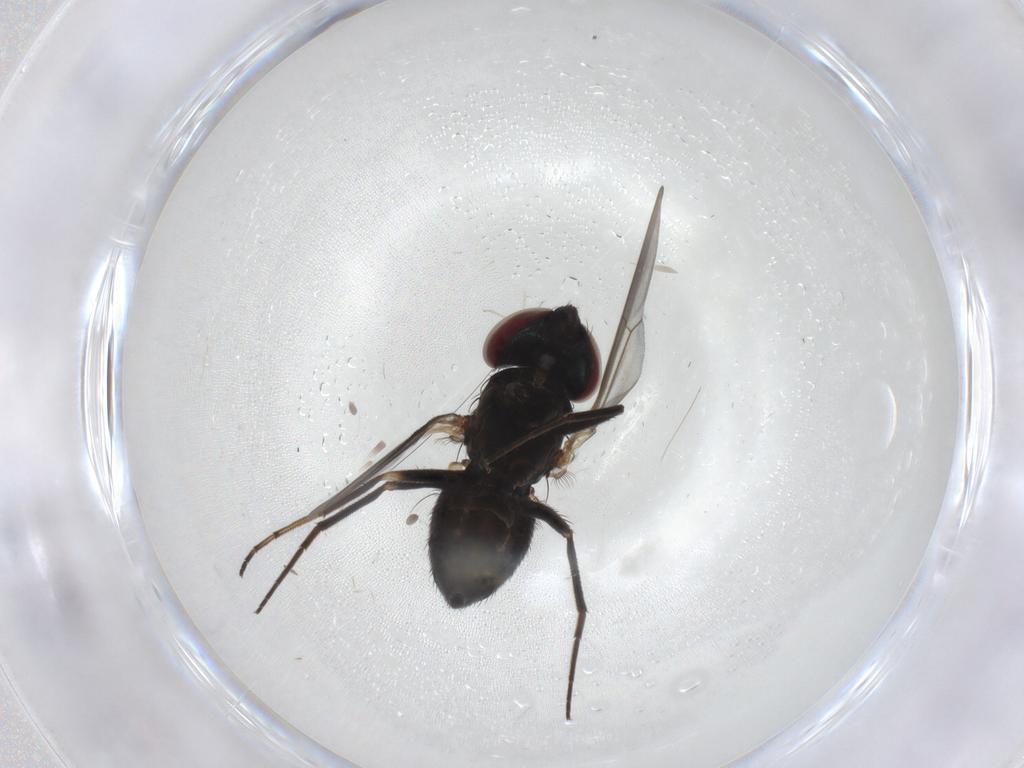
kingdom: Animalia
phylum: Arthropoda
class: Insecta
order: Diptera
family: Dolichopodidae
